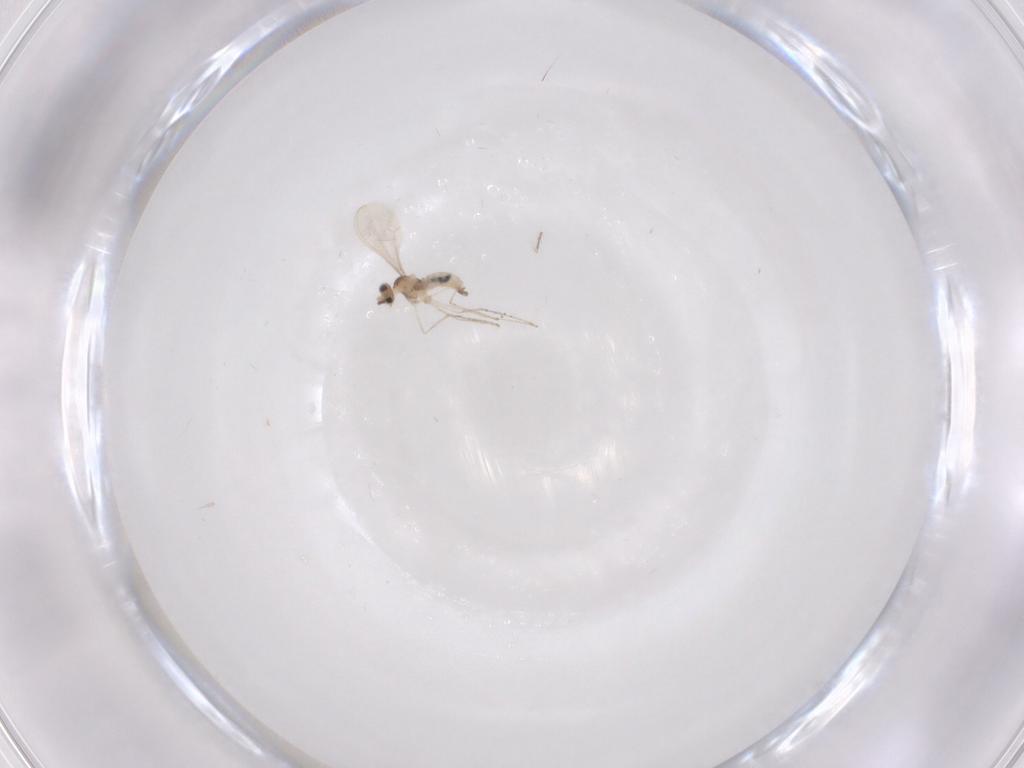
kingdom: Animalia
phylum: Arthropoda
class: Insecta
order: Diptera
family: Cecidomyiidae
